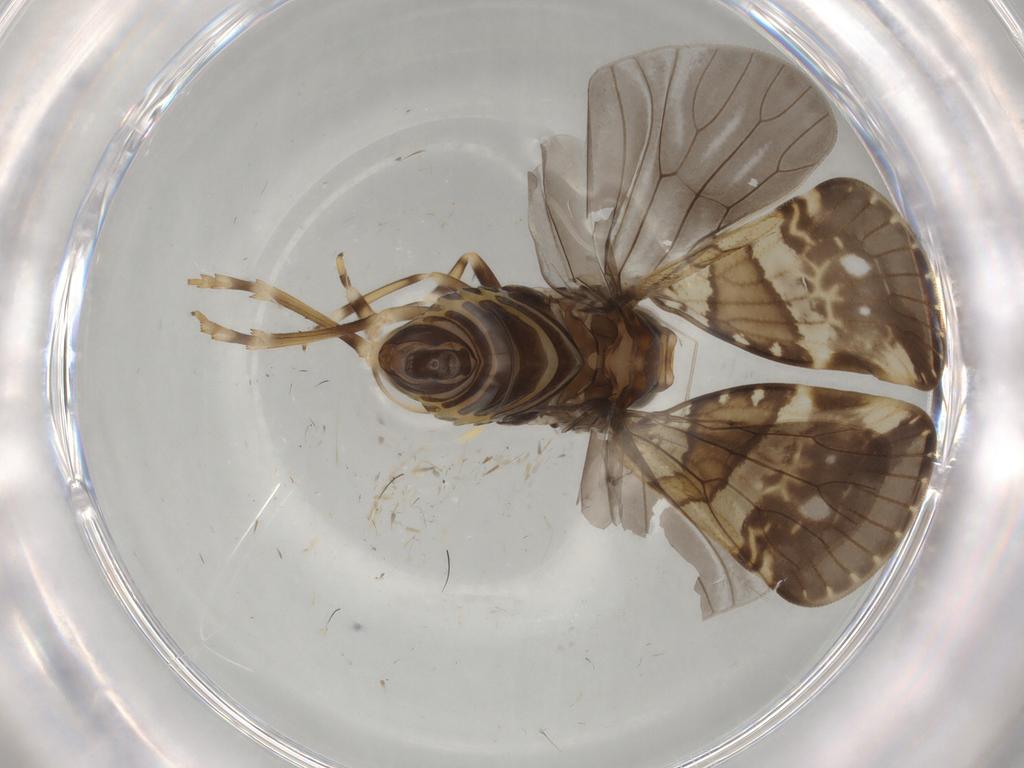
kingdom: Animalia
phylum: Arthropoda
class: Insecta
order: Hemiptera
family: Cixiidae
